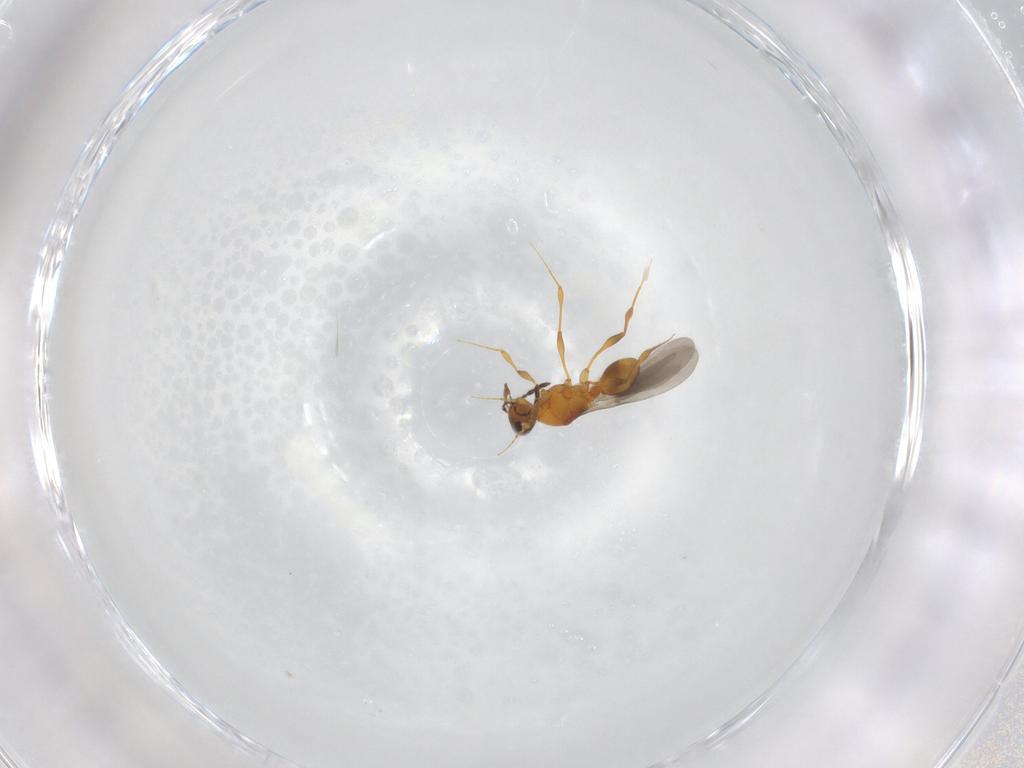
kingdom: Animalia
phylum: Arthropoda
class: Insecta
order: Hymenoptera
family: Platygastridae
